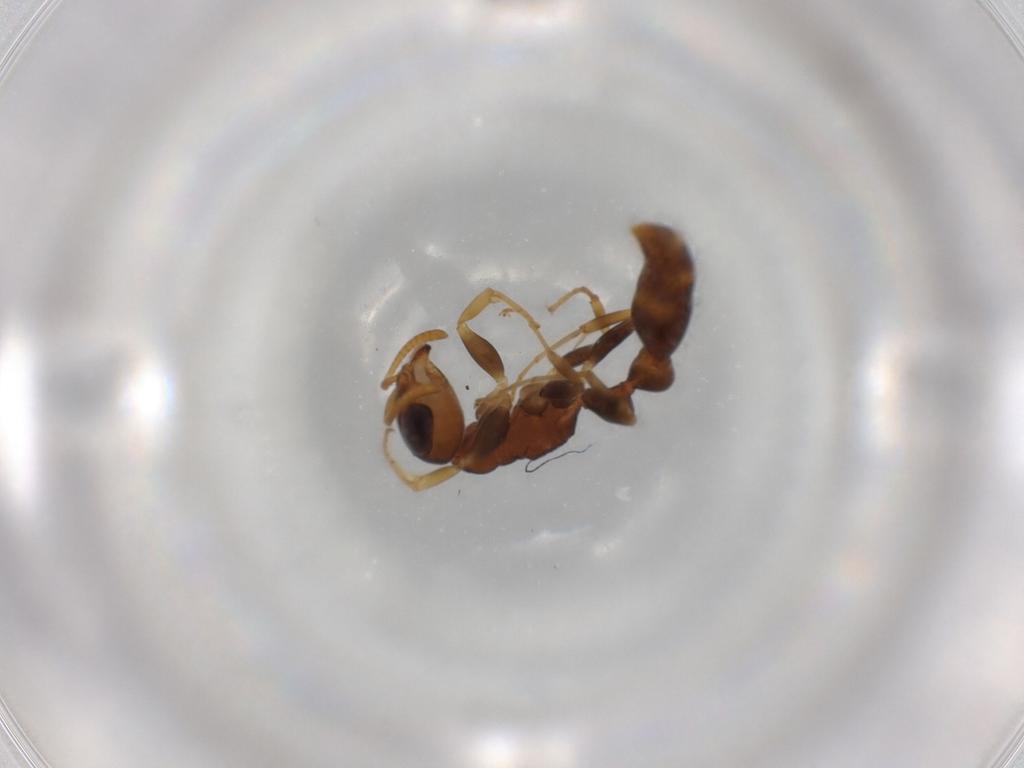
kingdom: Animalia
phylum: Arthropoda
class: Insecta
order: Hymenoptera
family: Formicidae
